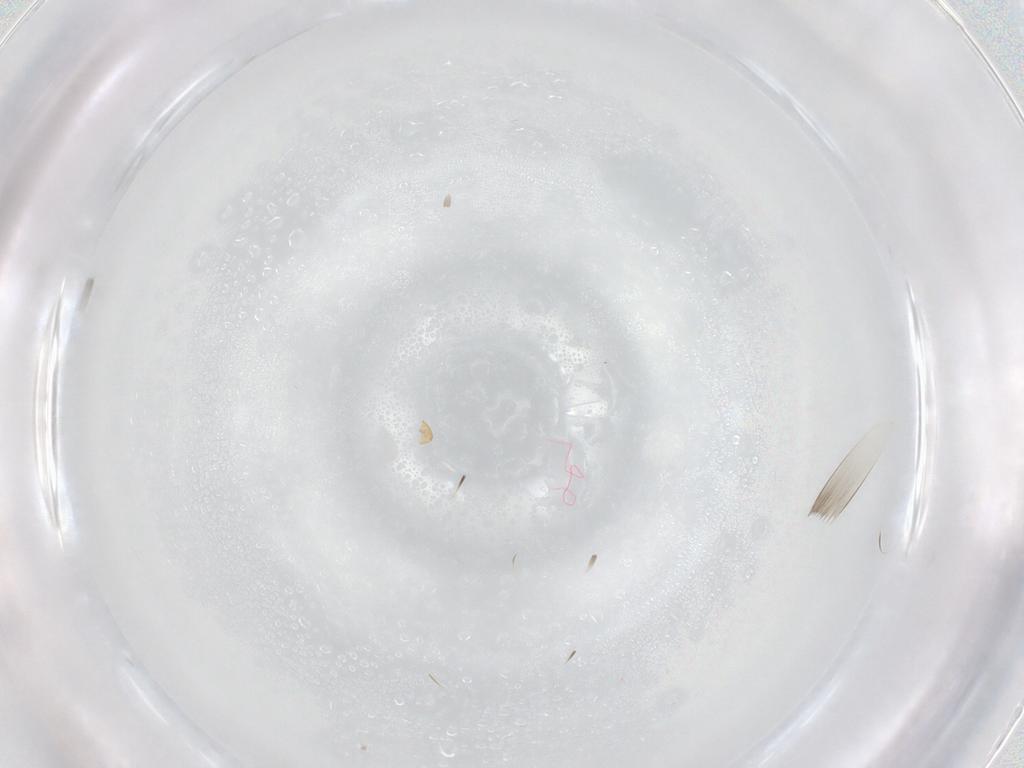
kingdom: Animalia
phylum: Arthropoda
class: Arachnida
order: Araneae
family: Linyphiidae
